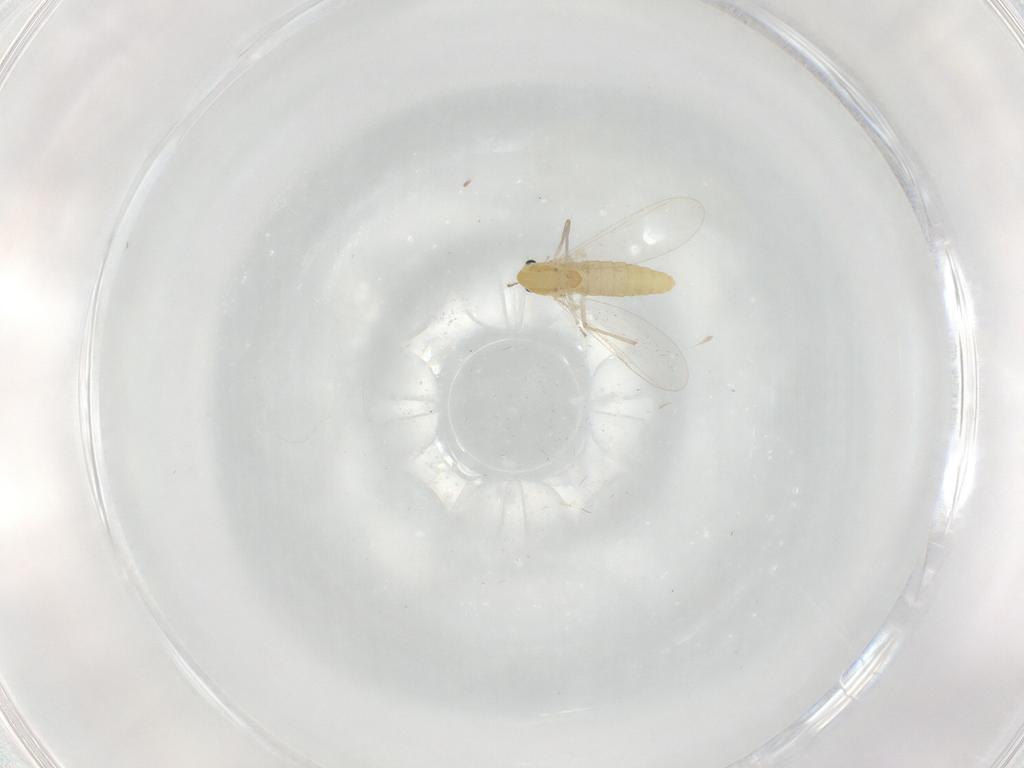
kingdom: Animalia
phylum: Arthropoda
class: Insecta
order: Diptera
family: Chironomidae
